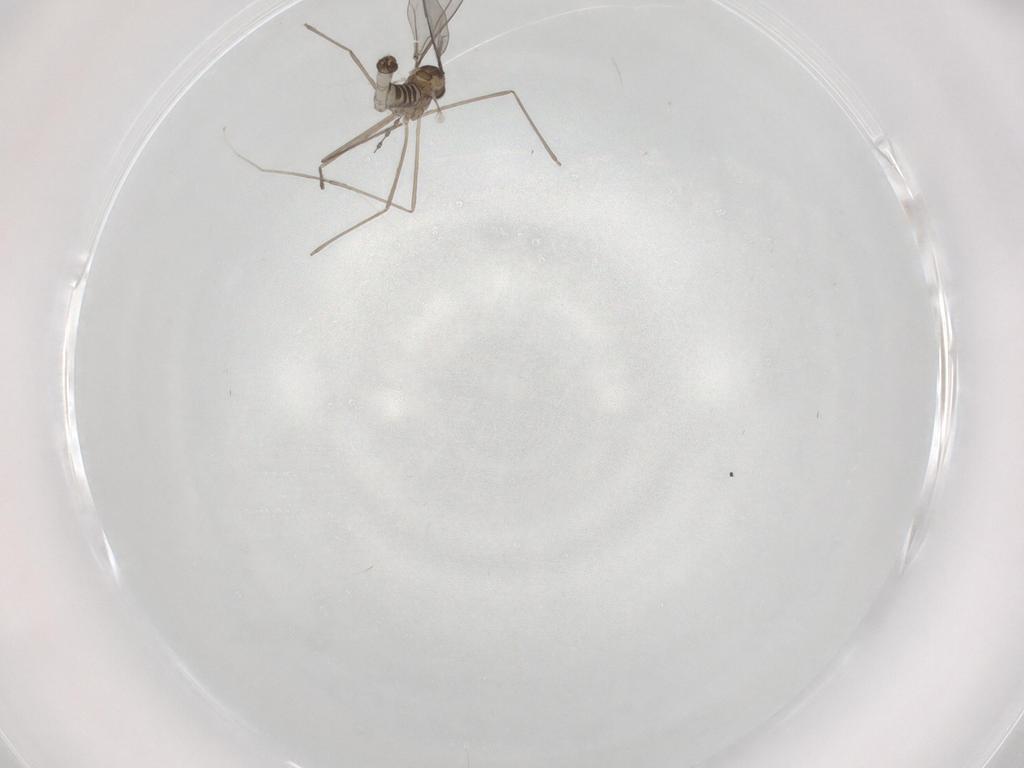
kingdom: Animalia
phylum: Arthropoda
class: Insecta
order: Diptera
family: Cecidomyiidae
